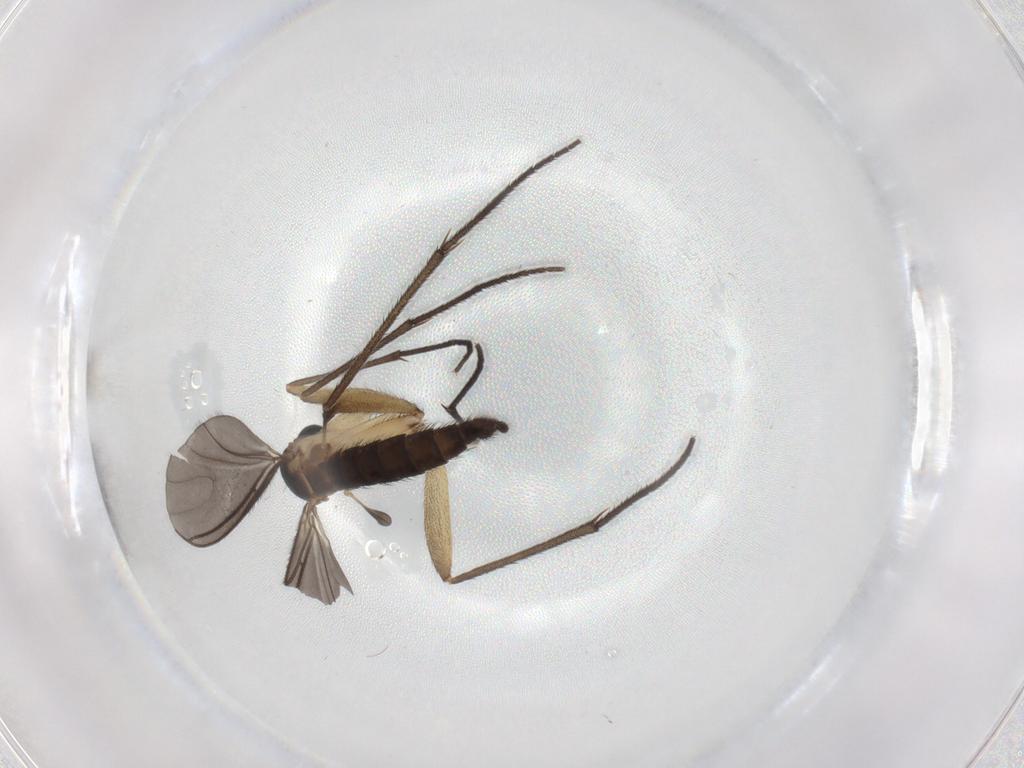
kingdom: Animalia
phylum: Arthropoda
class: Insecta
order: Diptera
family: Sciaridae
